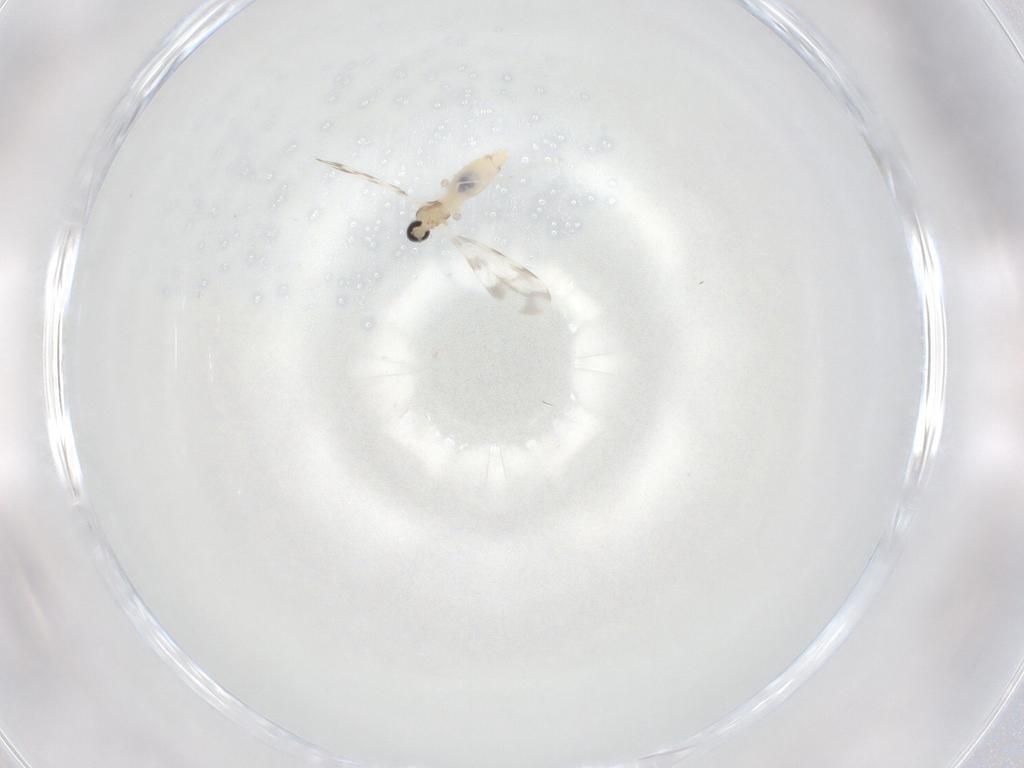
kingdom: Animalia
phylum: Arthropoda
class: Insecta
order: Diptera
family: Cecidomyiidae
